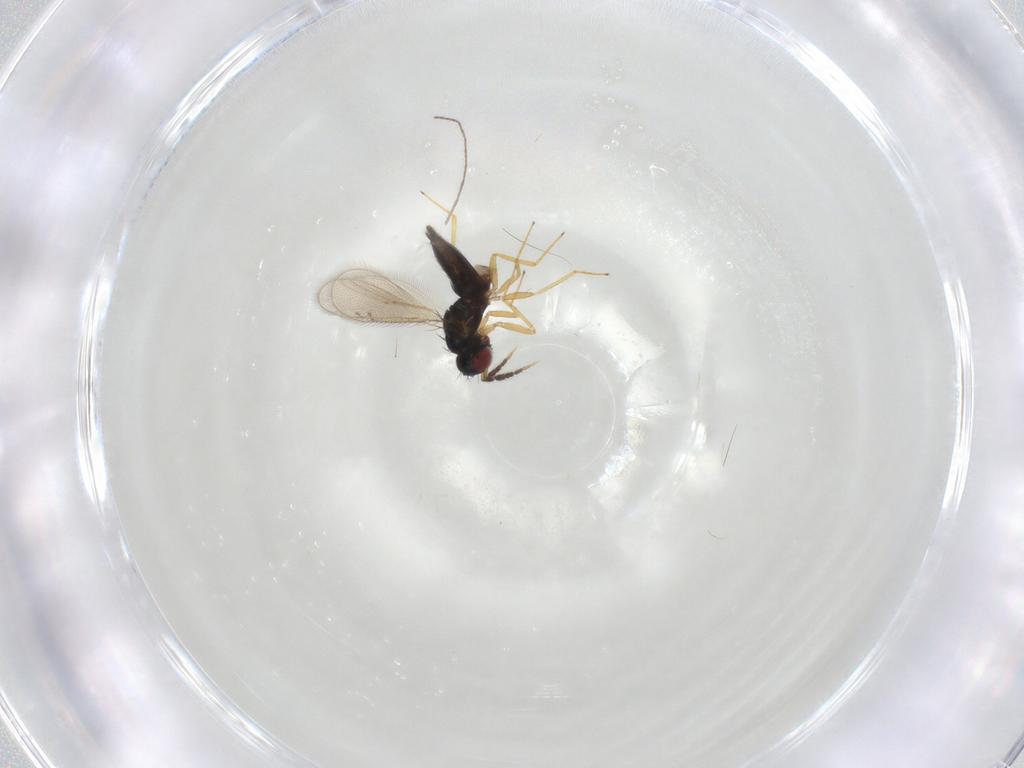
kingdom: Animalia
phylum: Arthropoda
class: Insecta
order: Hymenoptera
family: Eulophidae
